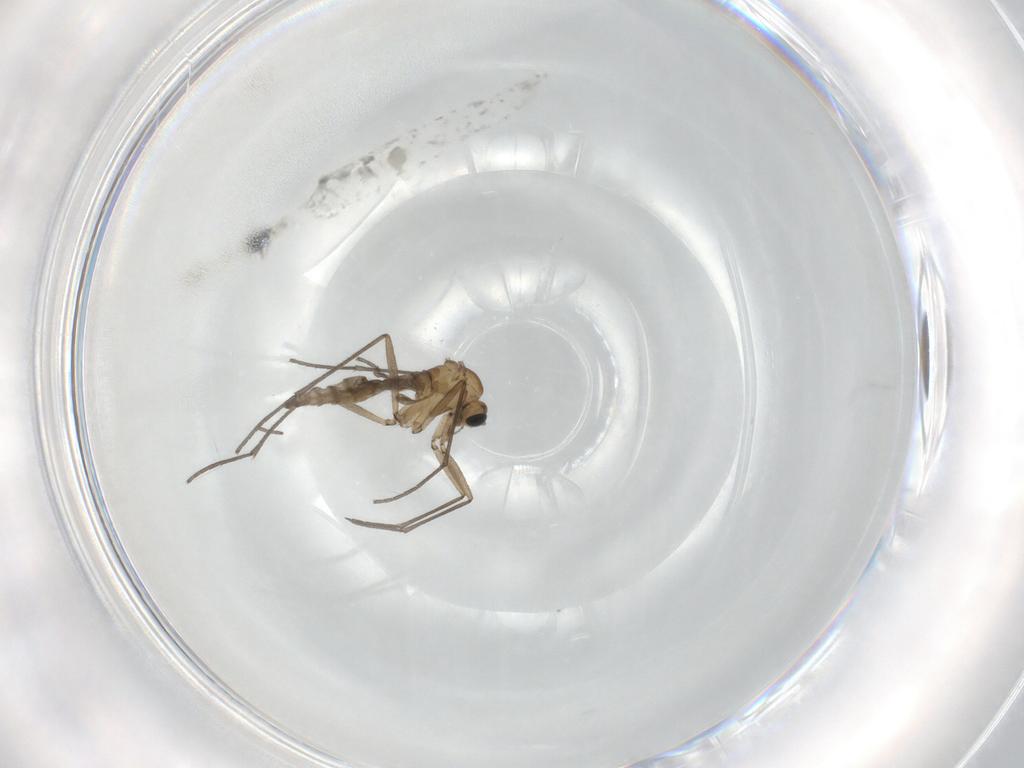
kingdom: Animalia
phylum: Arthropoda
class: Insecta
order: Diptera
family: Sciaridae
